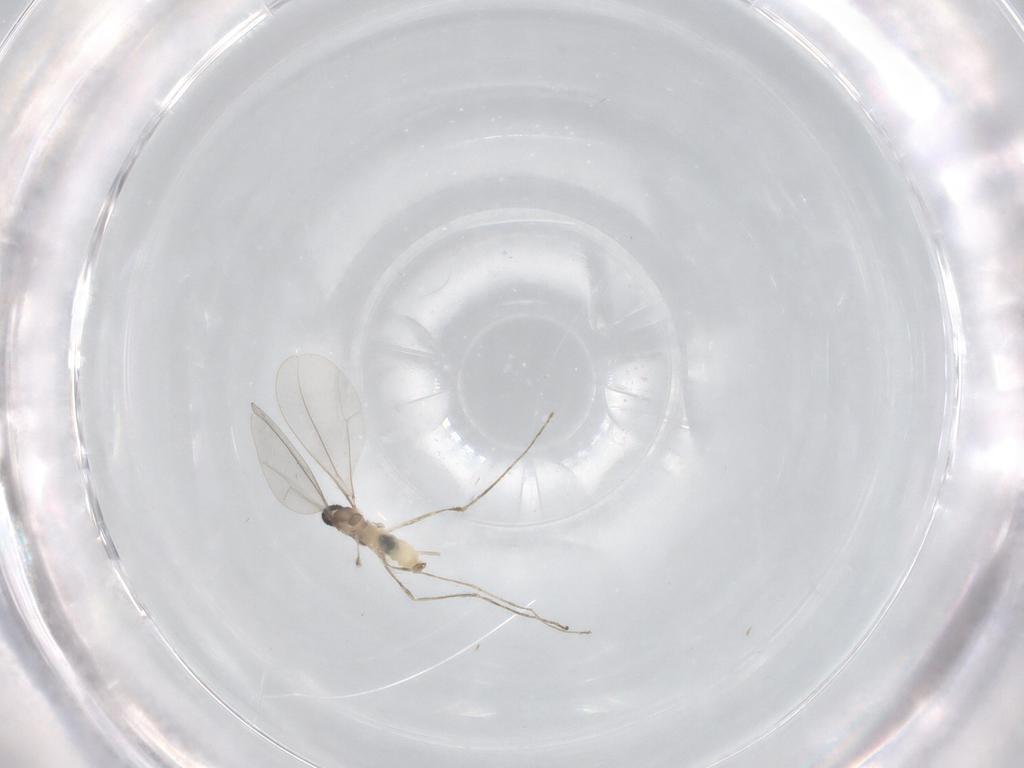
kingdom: Animalia
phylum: Arthropoda
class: Insecta
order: Diptera
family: Cecidomyiidae
